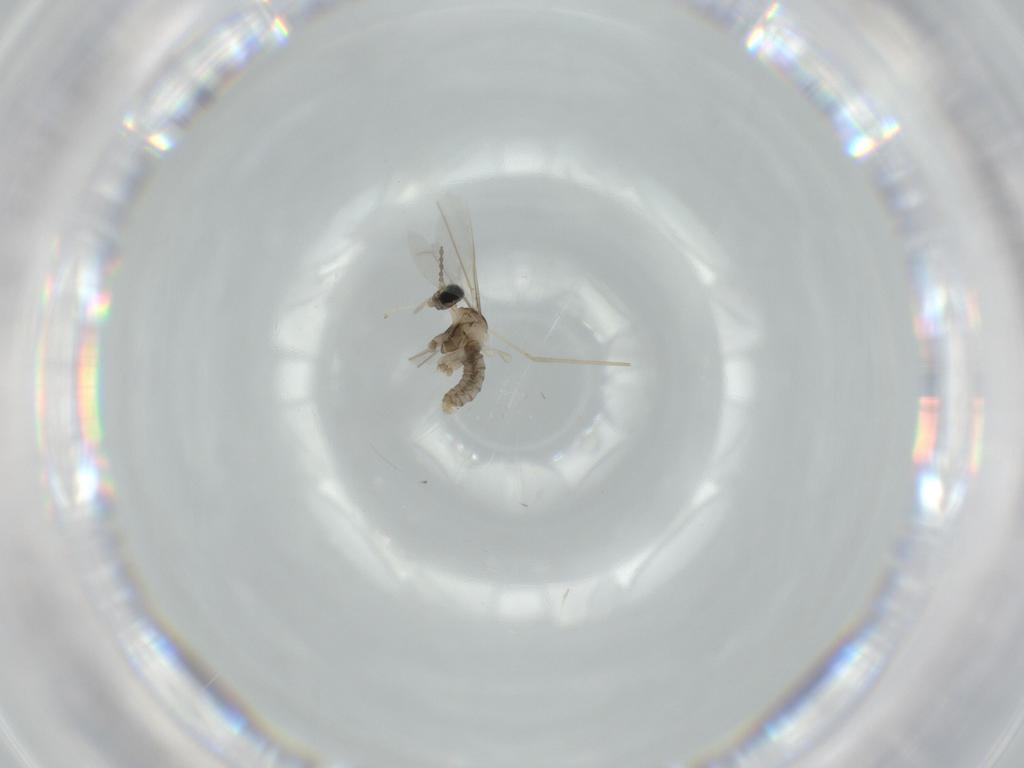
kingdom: Animalia
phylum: Arthropoda
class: Insecta
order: Diptera
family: Cecidomyiidae
